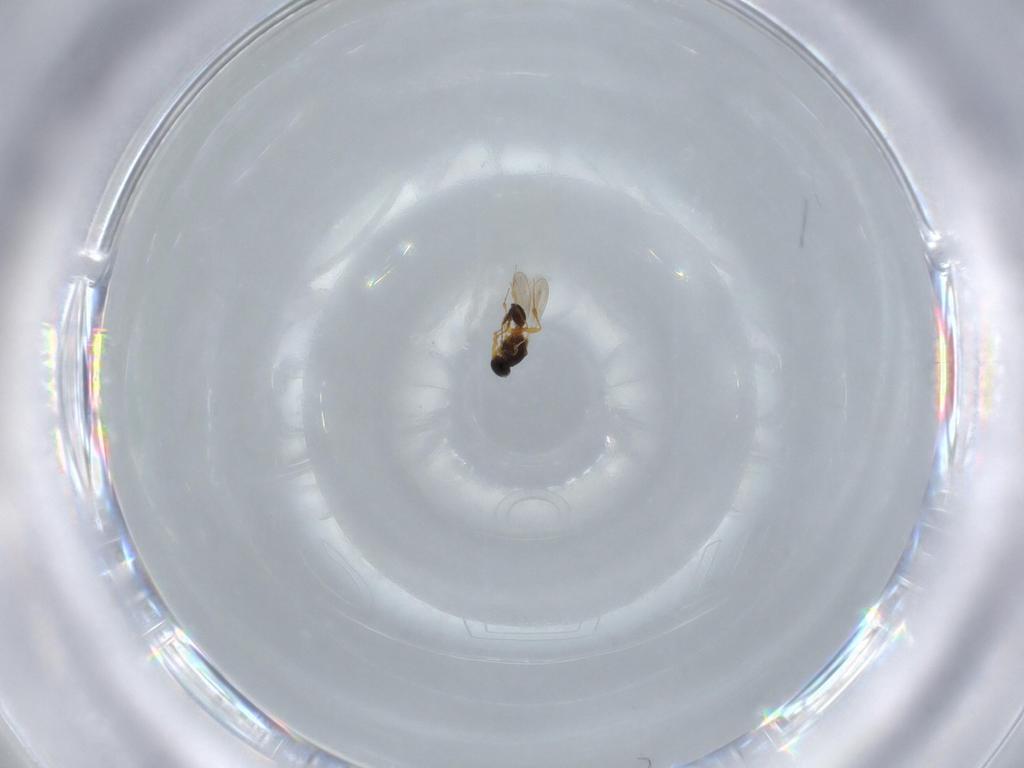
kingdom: Animalia
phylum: Arthropoda
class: Insecta
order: Hymenoptera
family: Platygastridae
